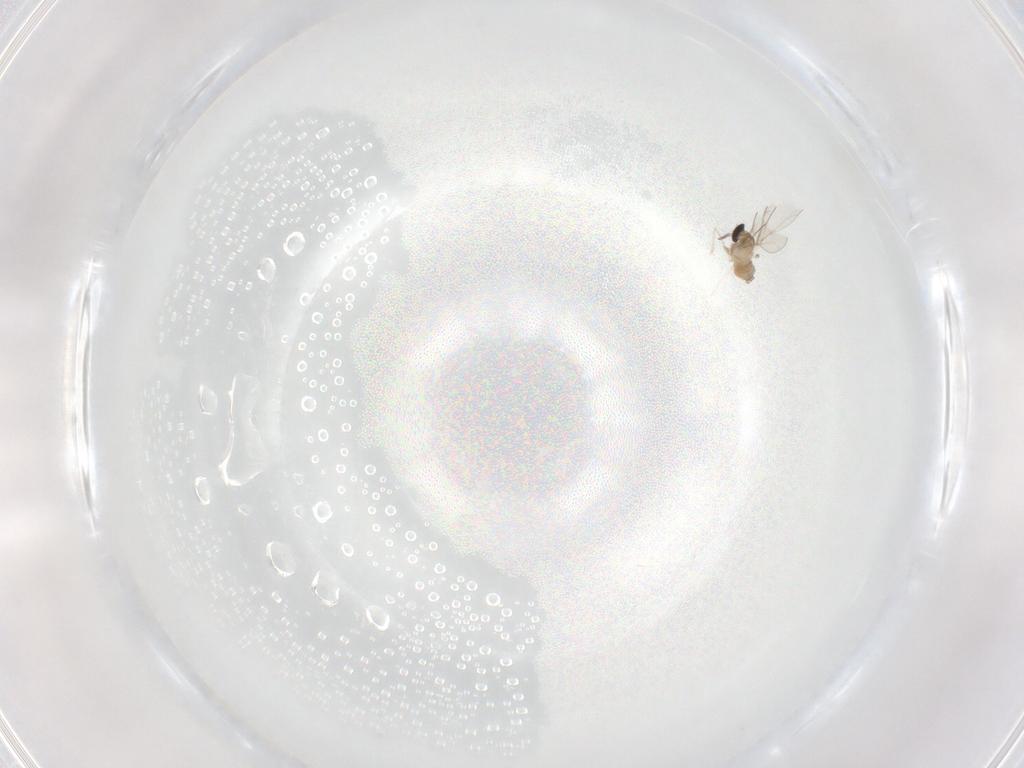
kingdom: Animalia
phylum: Arthropoda
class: Insecta
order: Diptera
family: Cecidomyiidae
